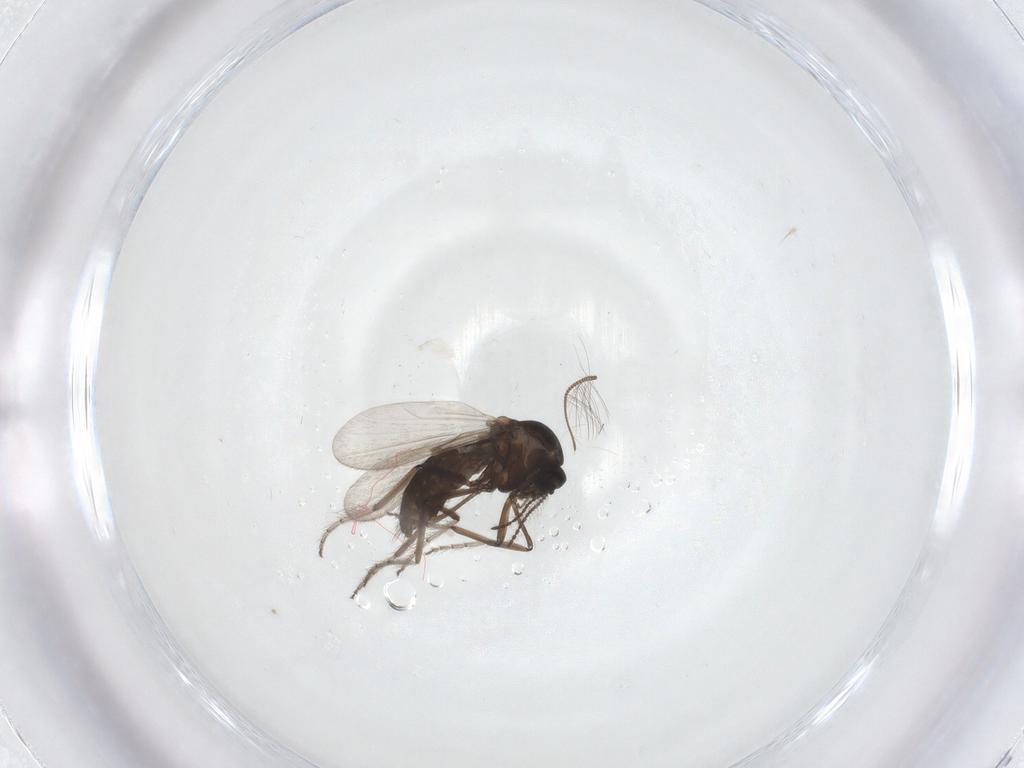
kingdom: Animalia
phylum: Arthropoda
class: Insecta
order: Diptera
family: Ceratopogonidae
